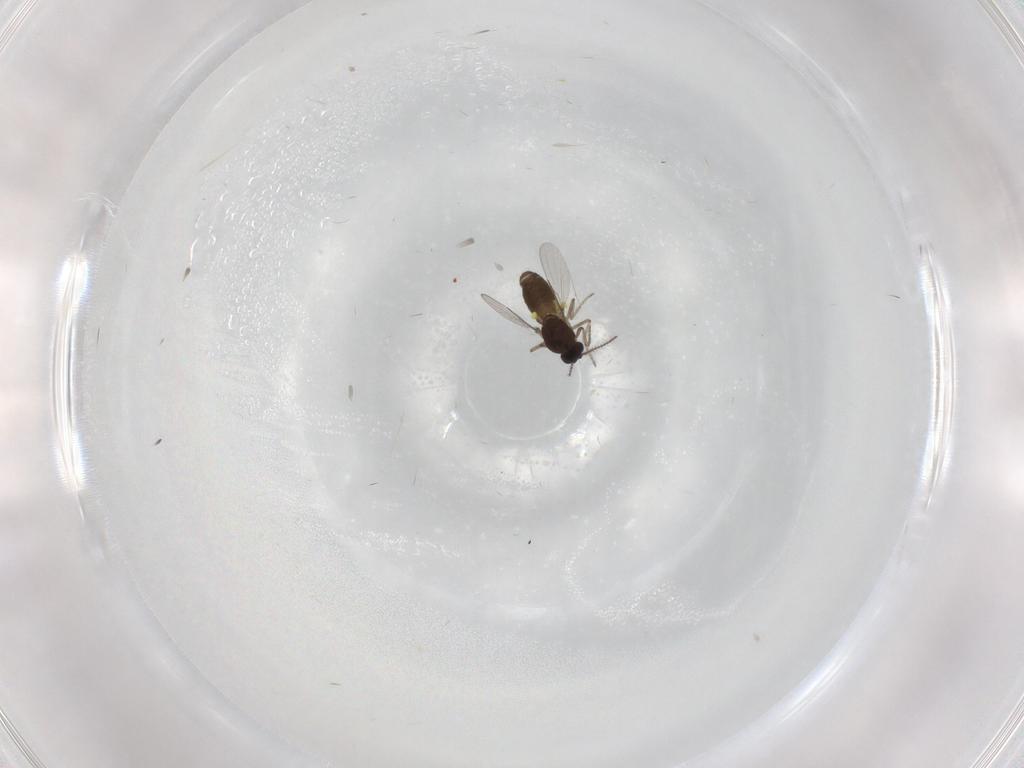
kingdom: Animalia
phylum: Arthropoda
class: Insecta
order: Diptera
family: Ceratopogonidae
